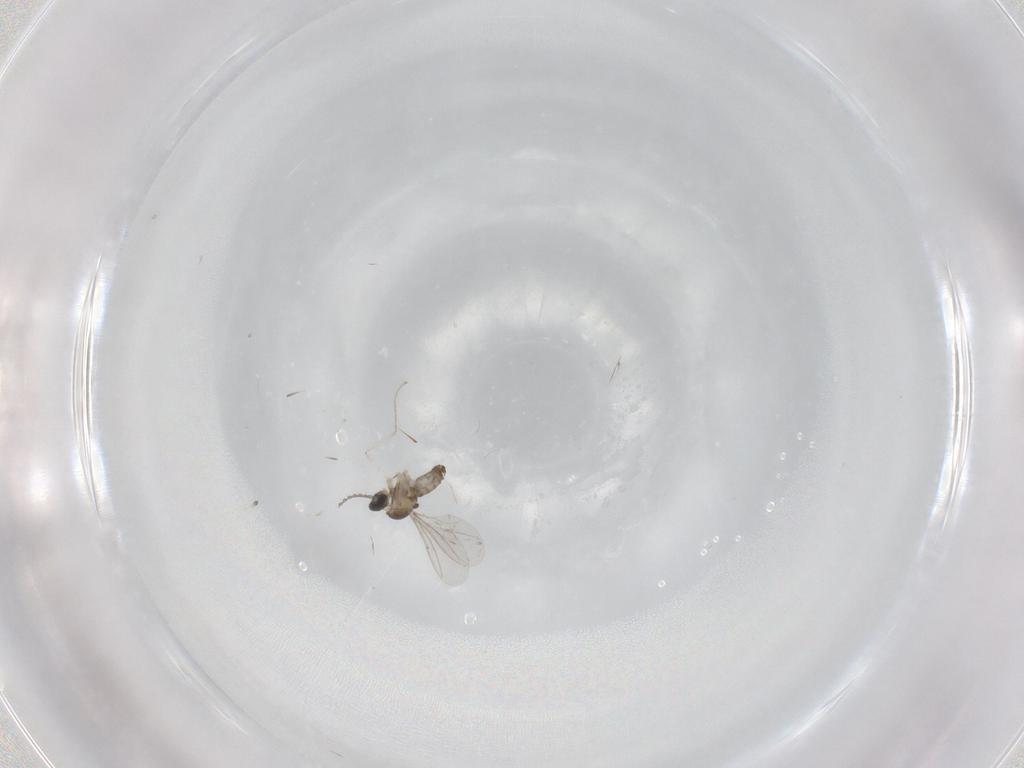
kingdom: Animalia
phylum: Arthropoda
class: Insecta
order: Diptera
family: Cecidomyiidae
